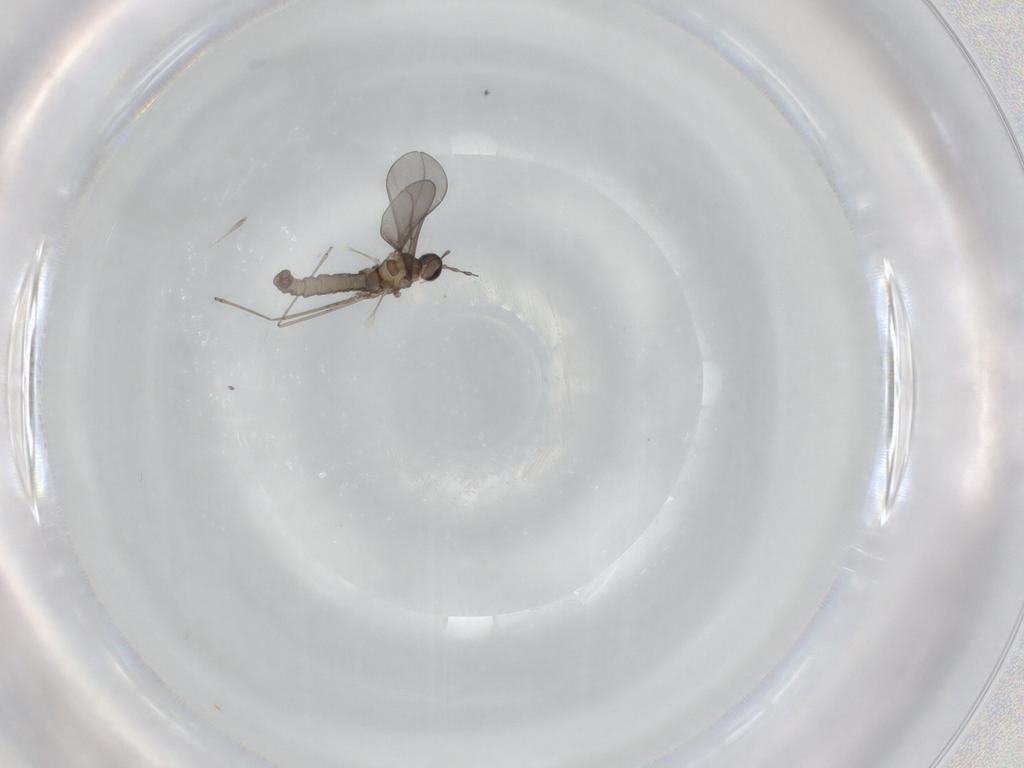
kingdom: Animalia
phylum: Arthropoda
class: Insecta
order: Diptera
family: Cecidomyiidae
